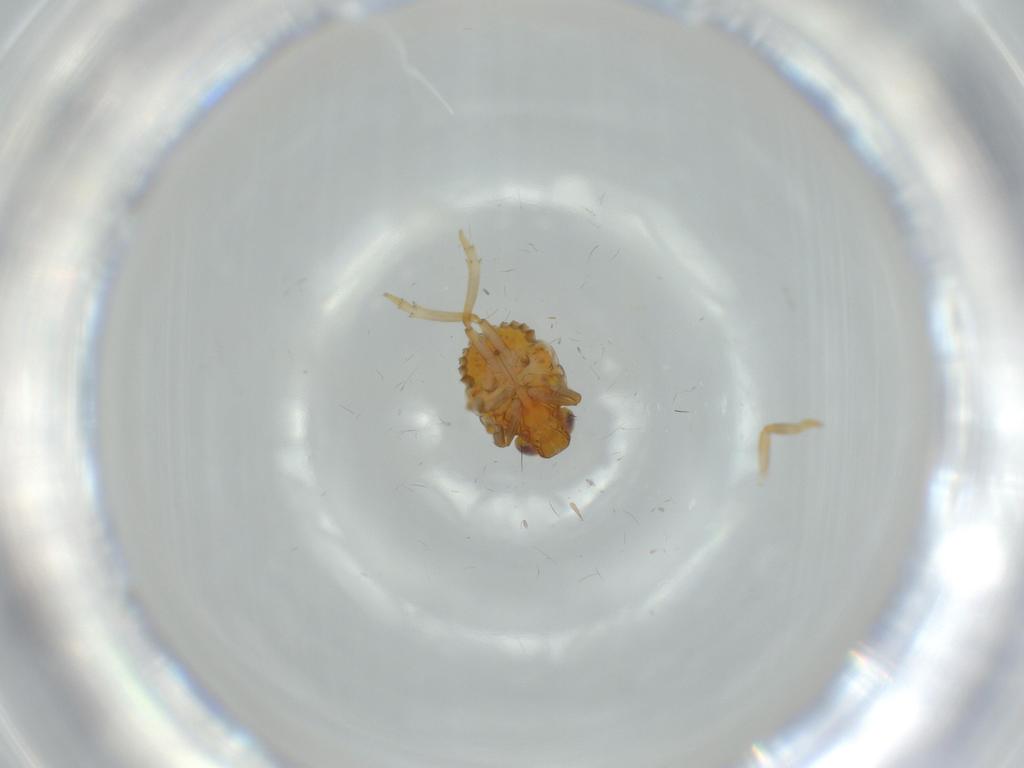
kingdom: Animalia
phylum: Arthropoda
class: Insecta
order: Hemiptera
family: Issidae
